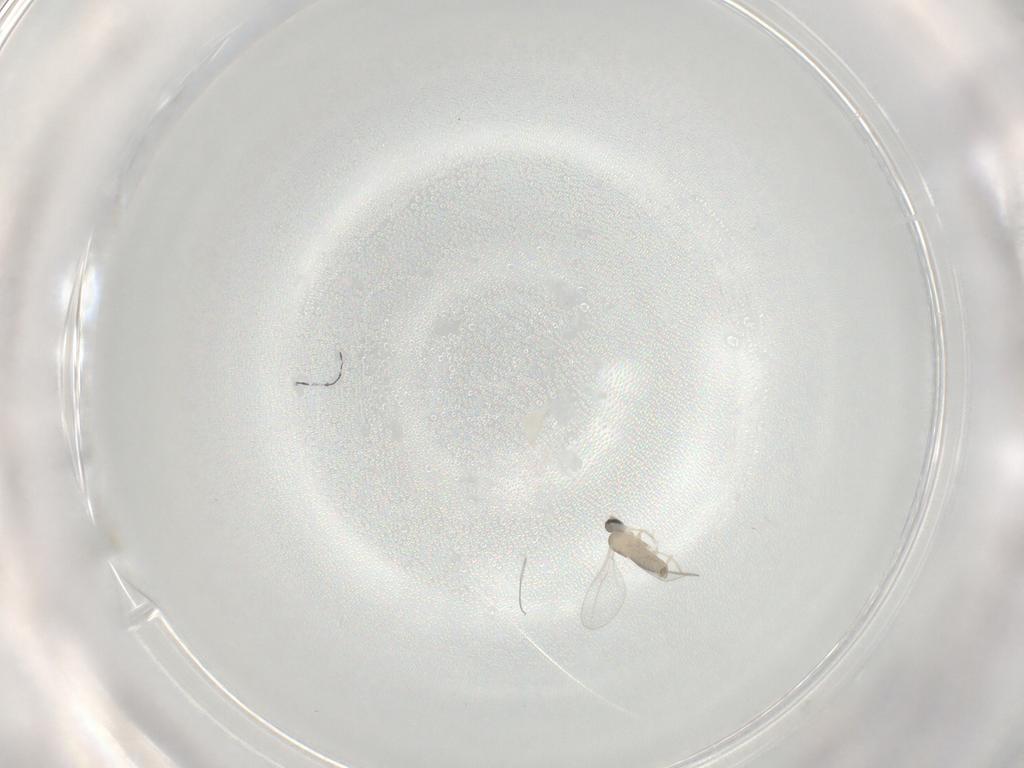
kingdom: Animalia
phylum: Arthropoda
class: Insecta
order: Diptera
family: Cecidomyiidae
